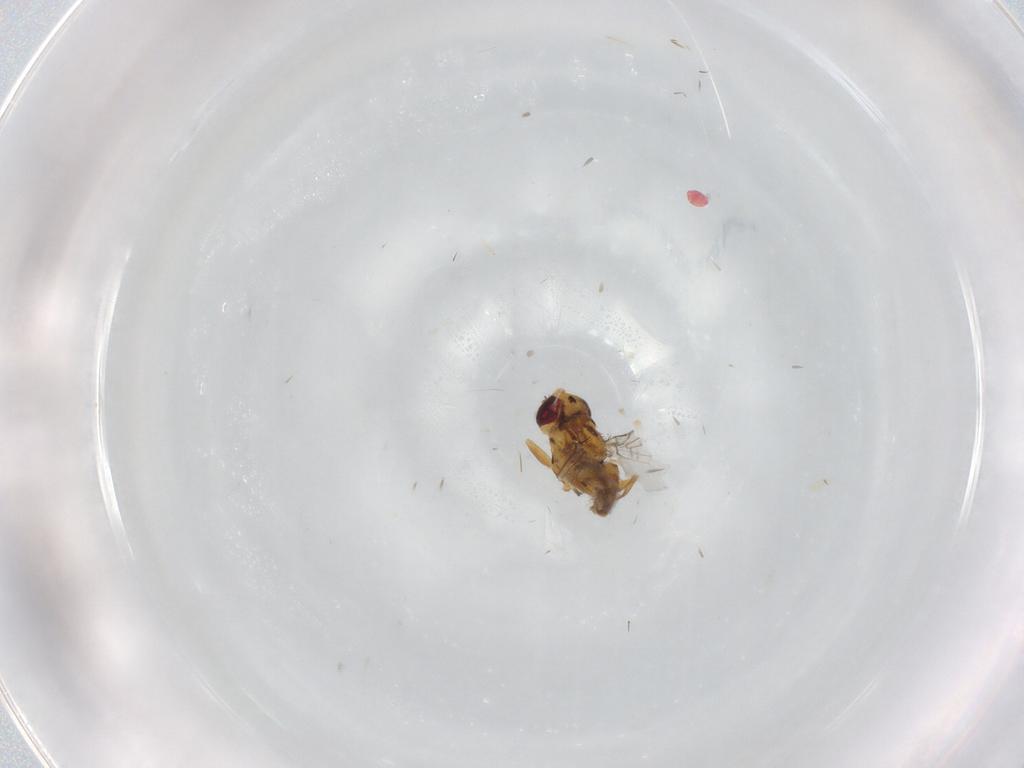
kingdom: Animalia
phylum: Arthropoda
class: Insecta
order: Diptera
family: Chloropidae
